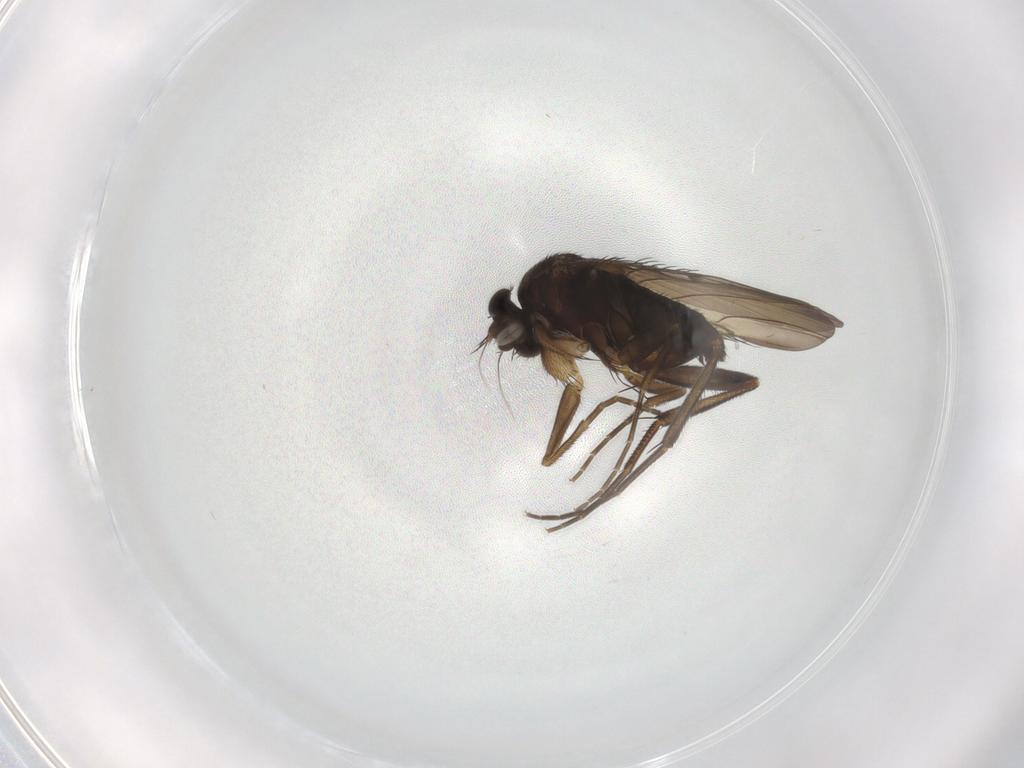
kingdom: Animalia
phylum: Arthropoda
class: Insecta
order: Diptera
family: Phoridae
